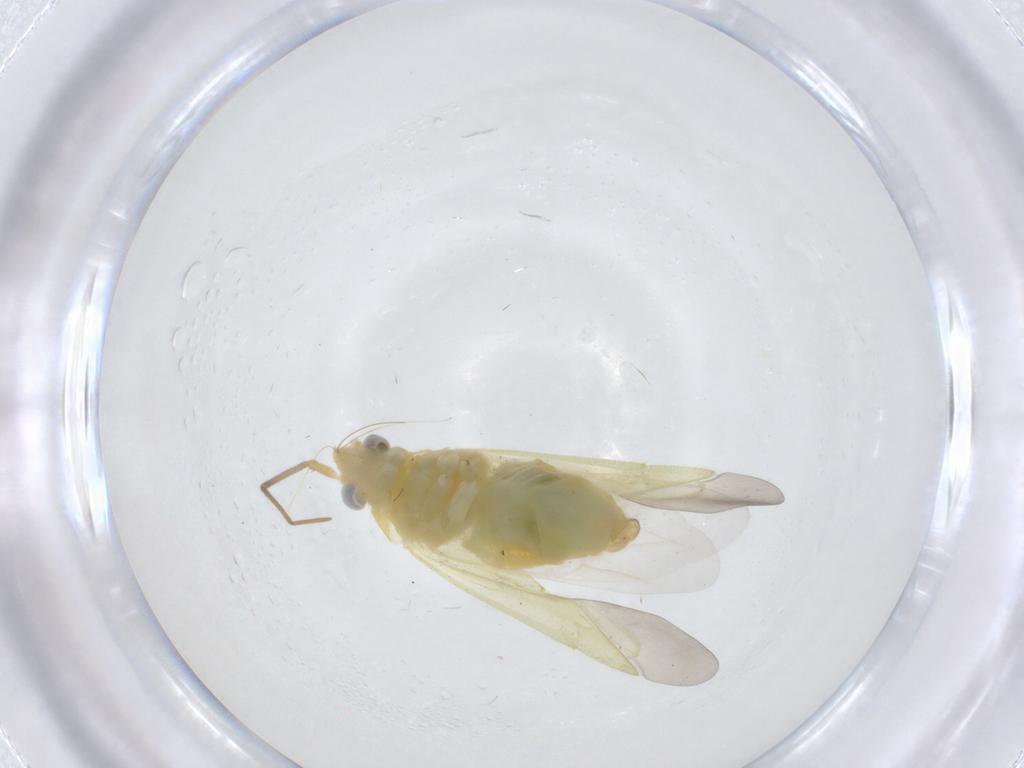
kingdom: Animalia
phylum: Arthropoda
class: Insecta
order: Hemiptera
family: Miridae
